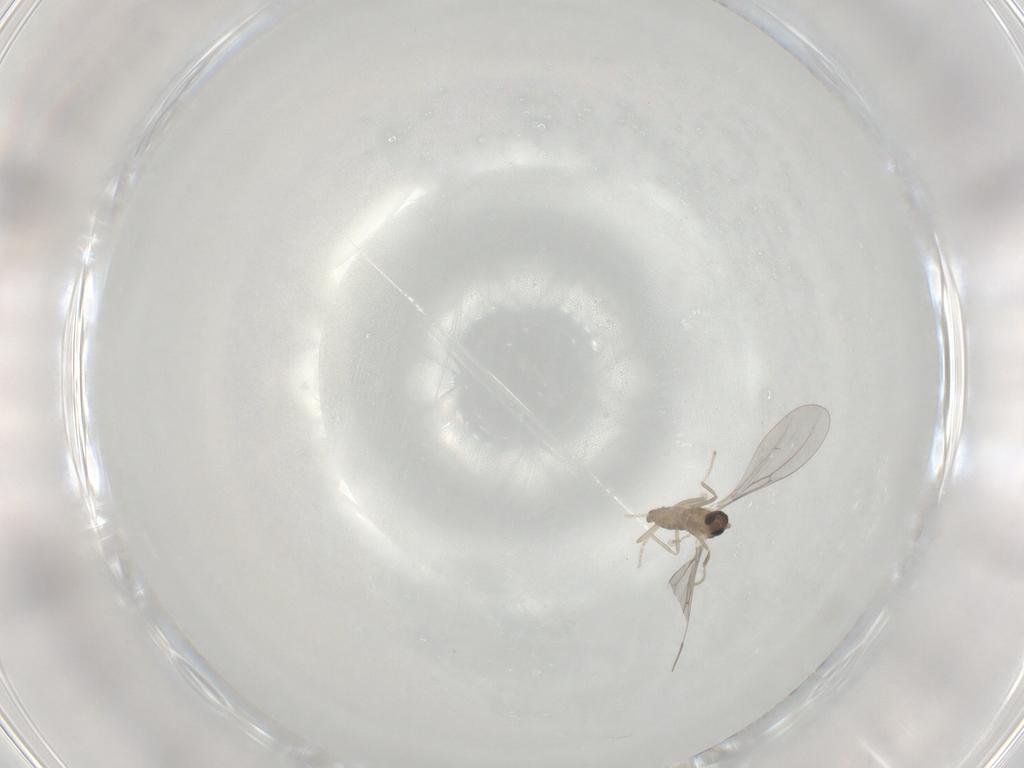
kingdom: Animalia
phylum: Arthropoda
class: Insecta
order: Diptera
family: Cecidomyiidae
